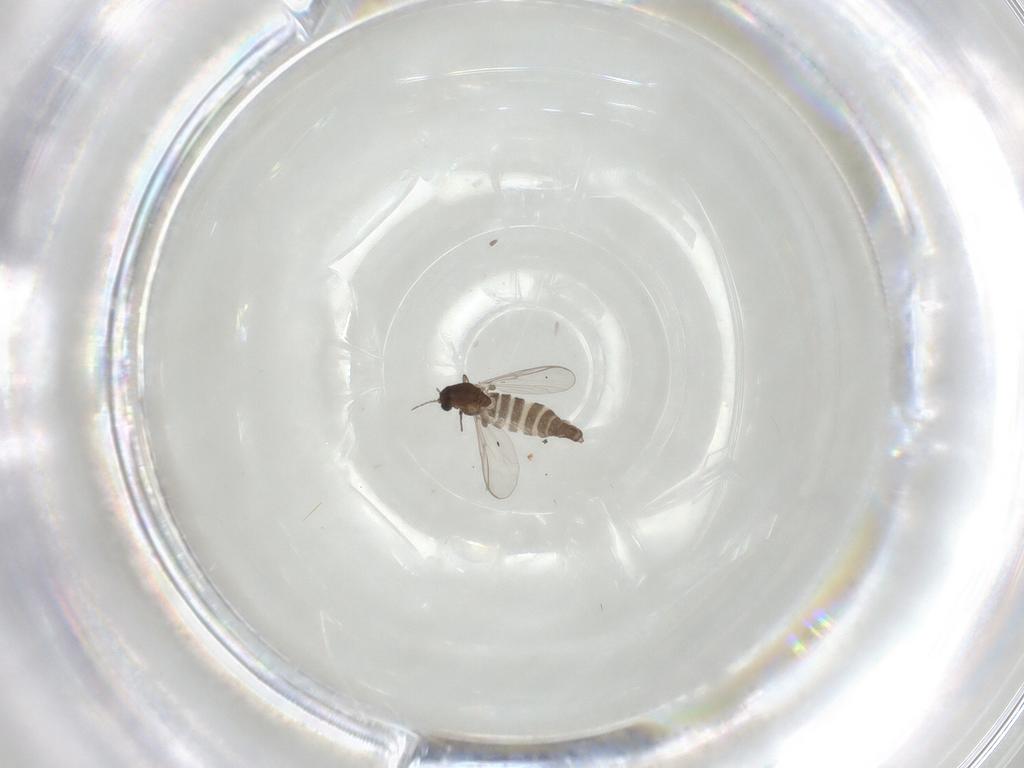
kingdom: Animalia
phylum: Arthropoda
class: Insecta
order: Diptera
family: Chironomidae
